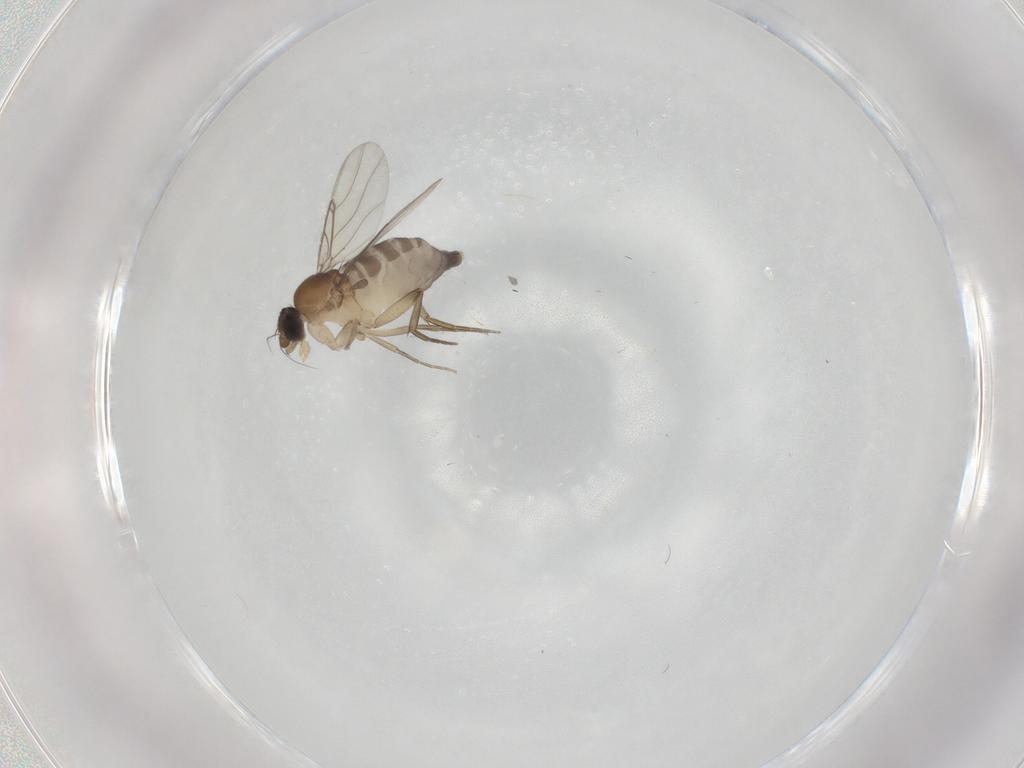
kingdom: Animalia
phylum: Arthropoda
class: Insecta
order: Diptera
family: Phoridae
